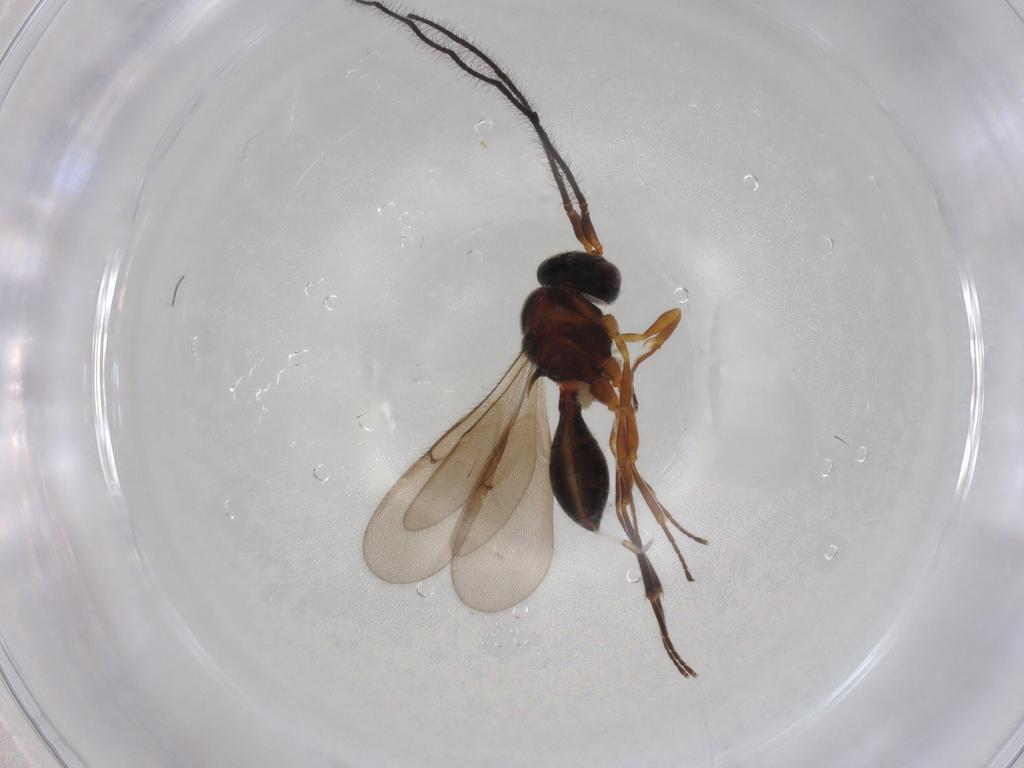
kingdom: Animalia
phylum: Arthropoda
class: Insecta
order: Hymenoptera
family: Scelionidae
